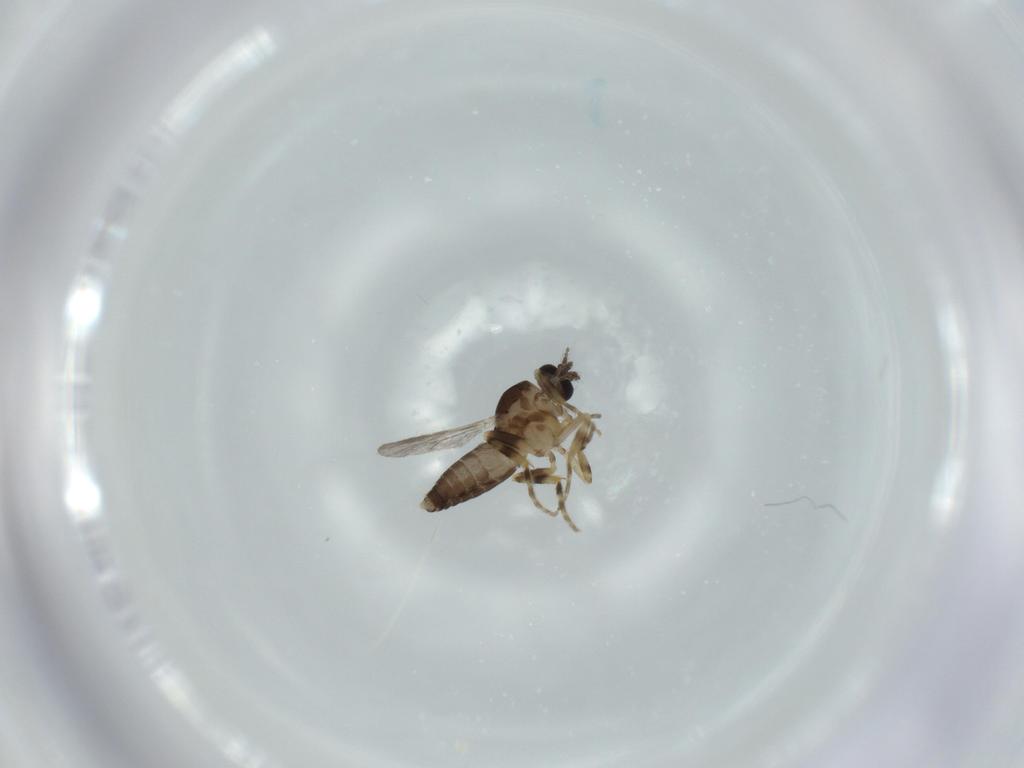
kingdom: Animalia
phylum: Arthropoda
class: Insecta
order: Diptera
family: Ceratopogonidae
